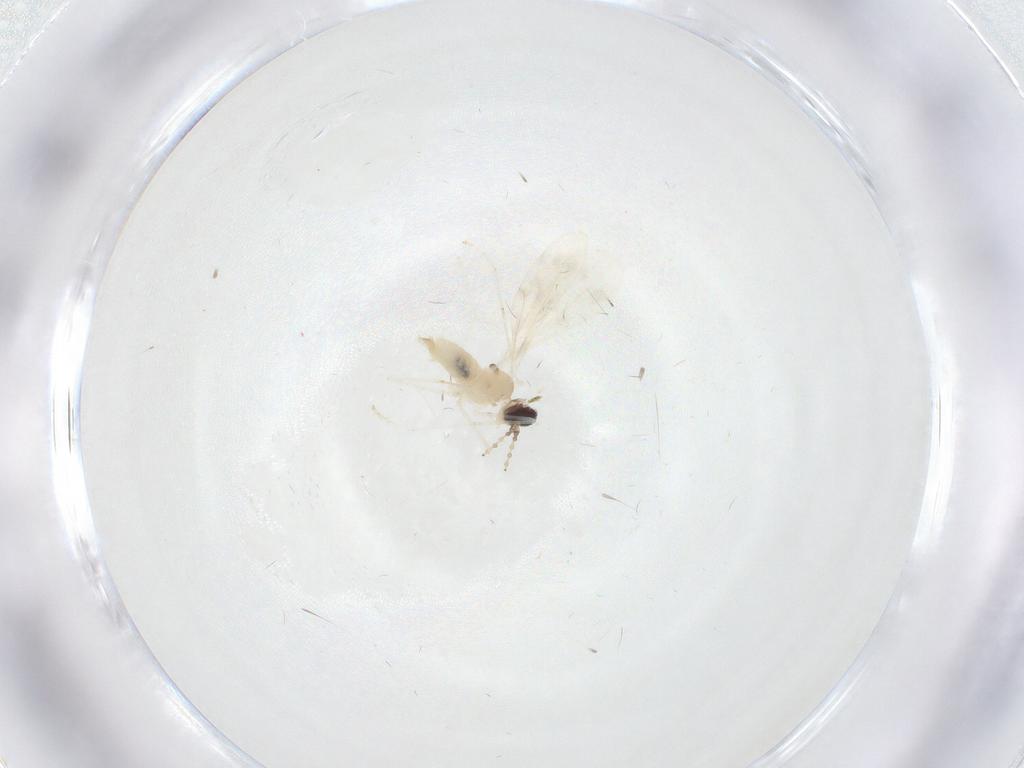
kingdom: Animalia
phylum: Arthropoda
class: Insecta
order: Diptera
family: Cecidomyiidae
